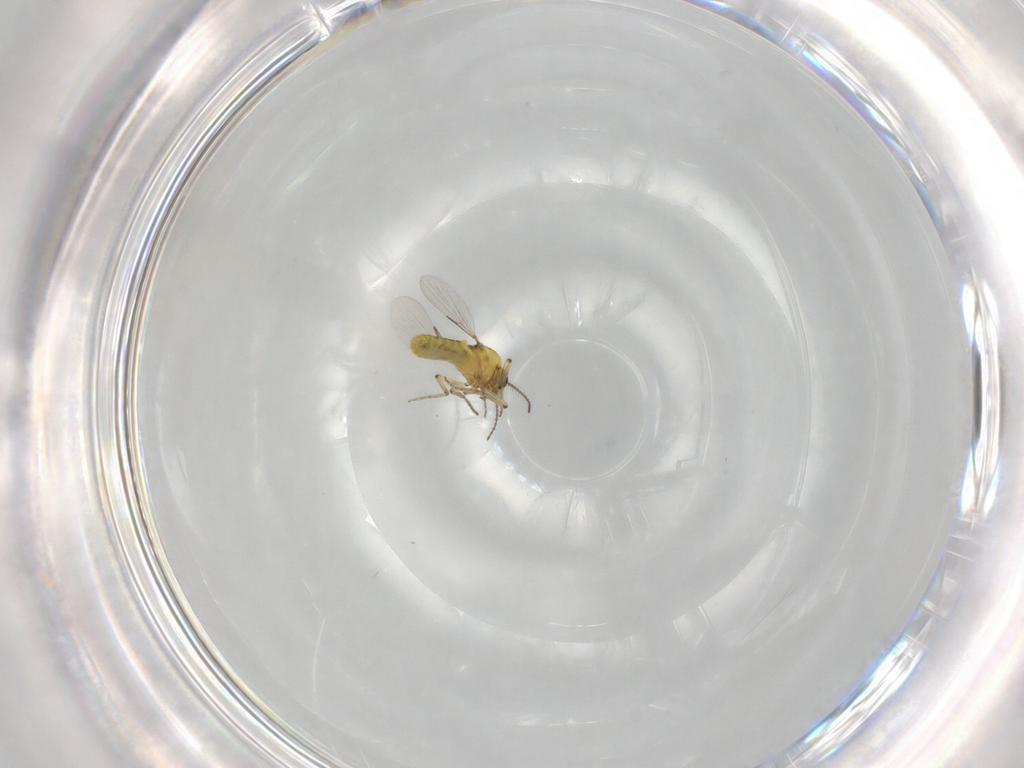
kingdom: Animalia
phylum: Arthropoda
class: Insecta
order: Diptera
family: Ceratopogonidae
